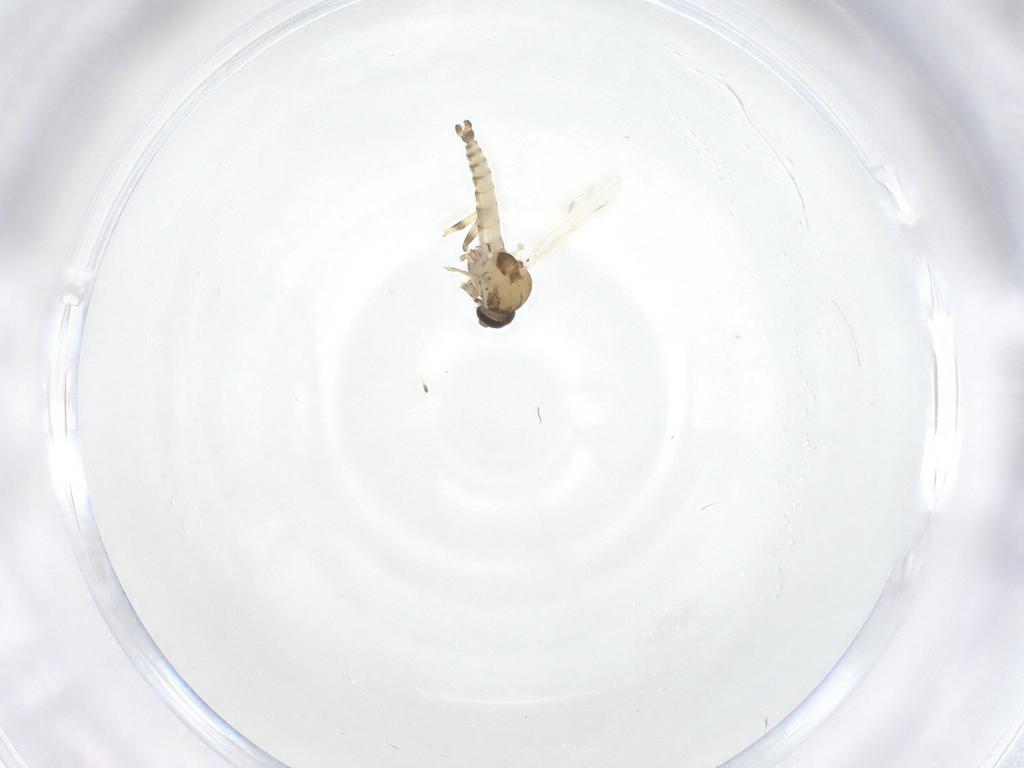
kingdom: Animalia
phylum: Arthropoda
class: Insecta
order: Diptera
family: Ceratopogonidae
